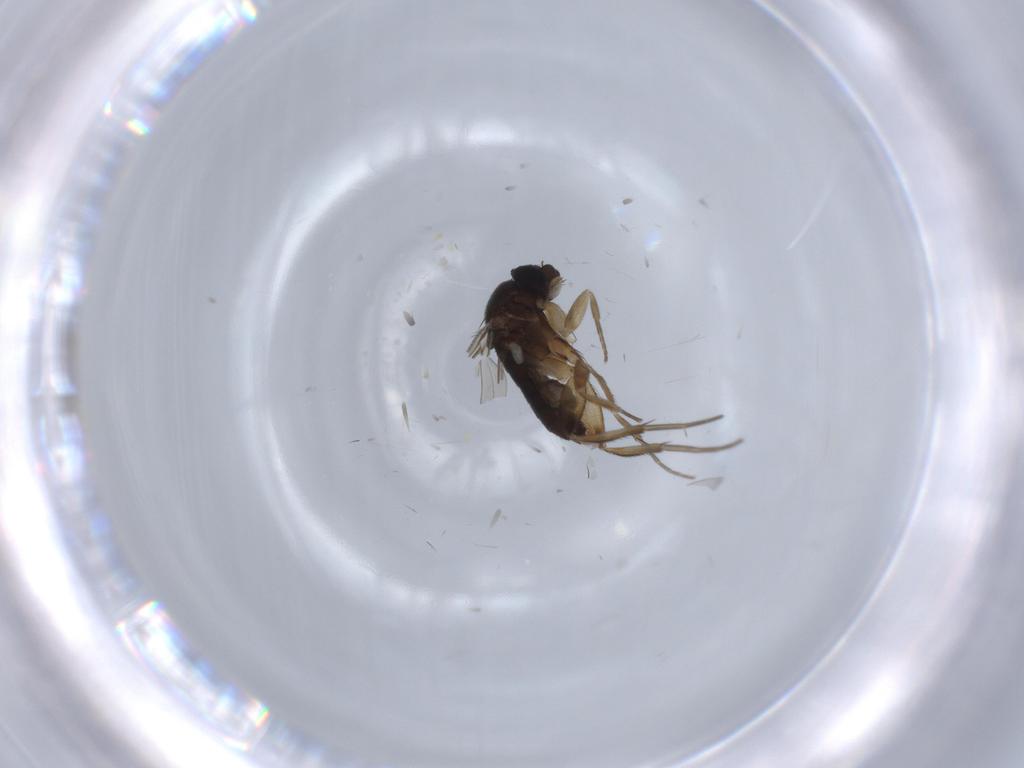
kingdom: Animalia
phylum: Arthropoda
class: Insecta
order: Diptera
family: Phoridae
